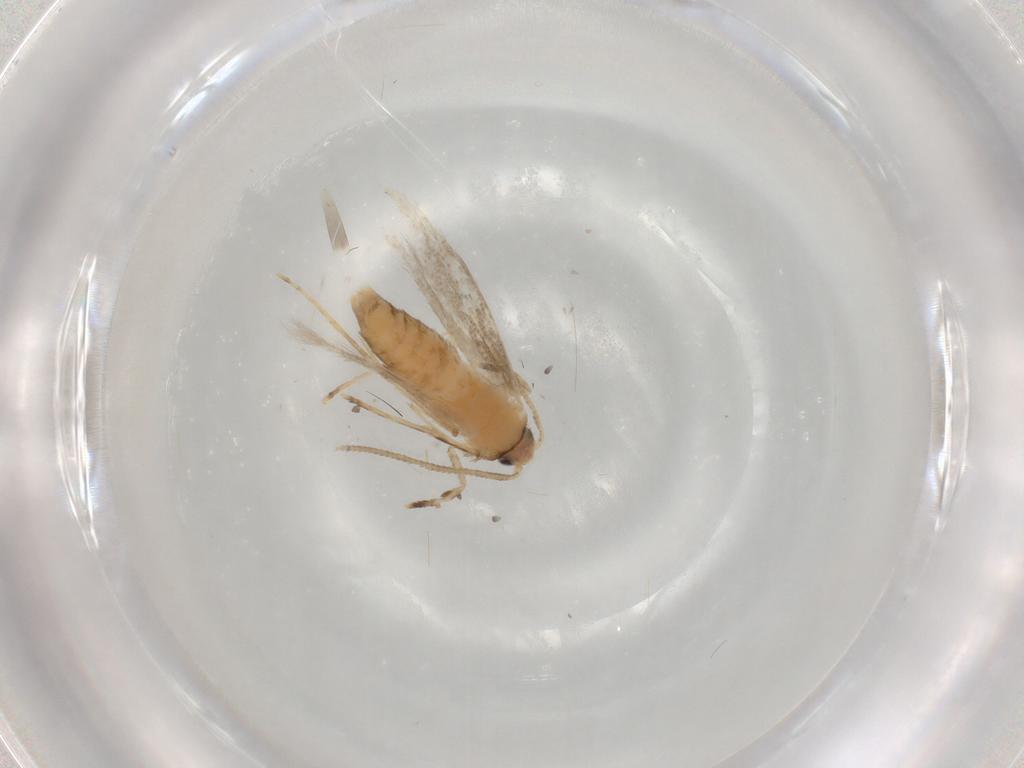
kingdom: Animalia
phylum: Arthropoda
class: Insecta
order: Lepidoptera
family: Tineidae
